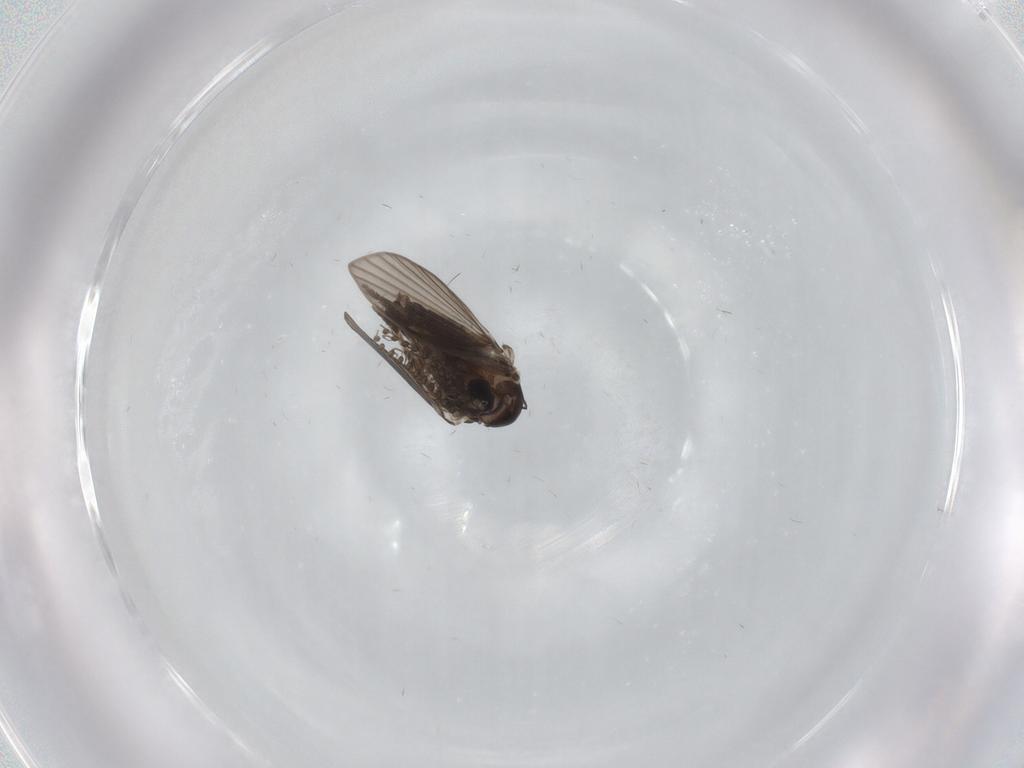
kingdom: Animalia
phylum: Arthropoda
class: Insecta
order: Diptera
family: Psychodidae
